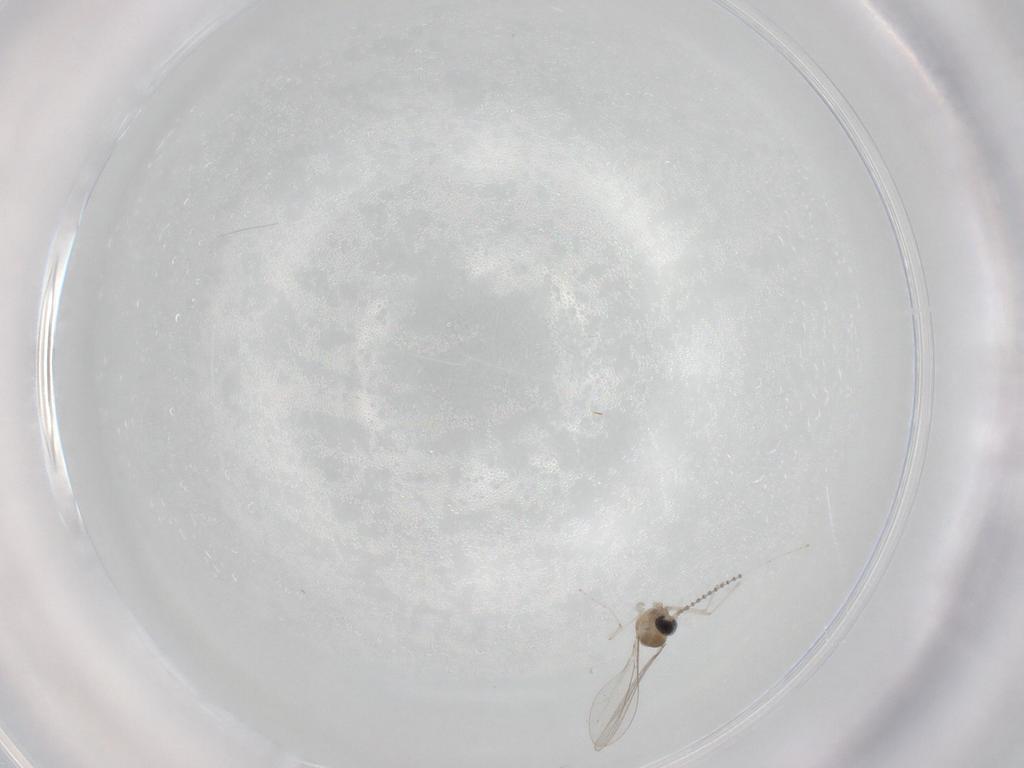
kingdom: Animalia
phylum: Arthropoda
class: Insecta
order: Diptera
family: Cecidomyiidae
